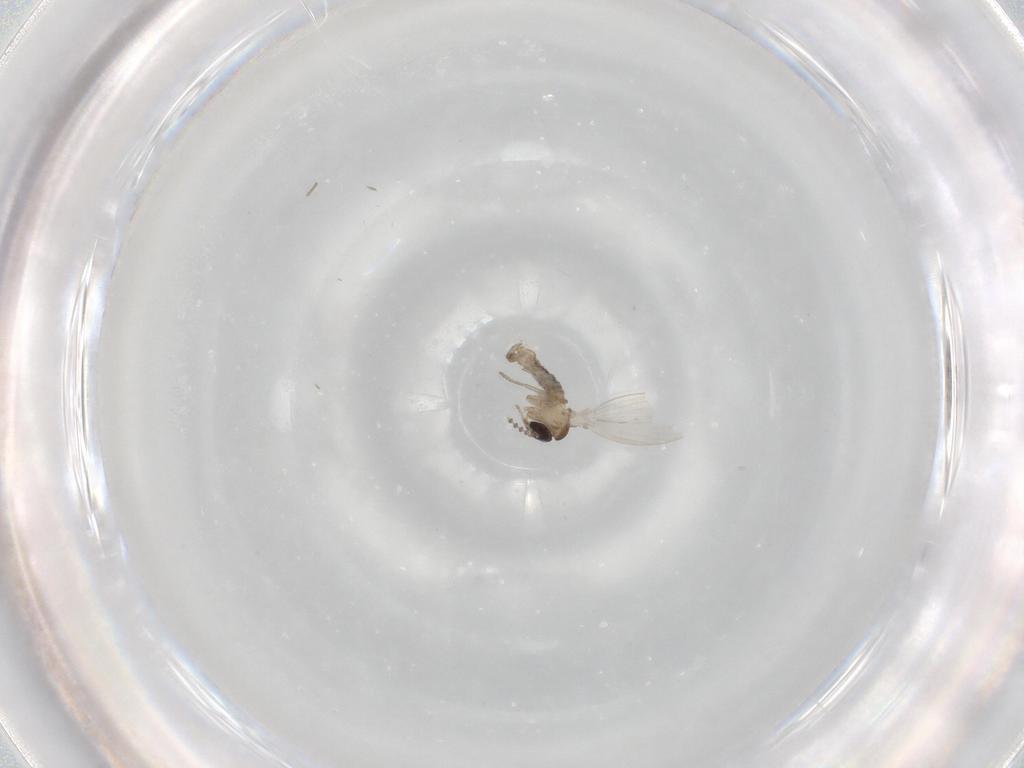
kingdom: Animalia
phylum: Arthropoda
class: Insecta
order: Diptera
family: Psychodidae
